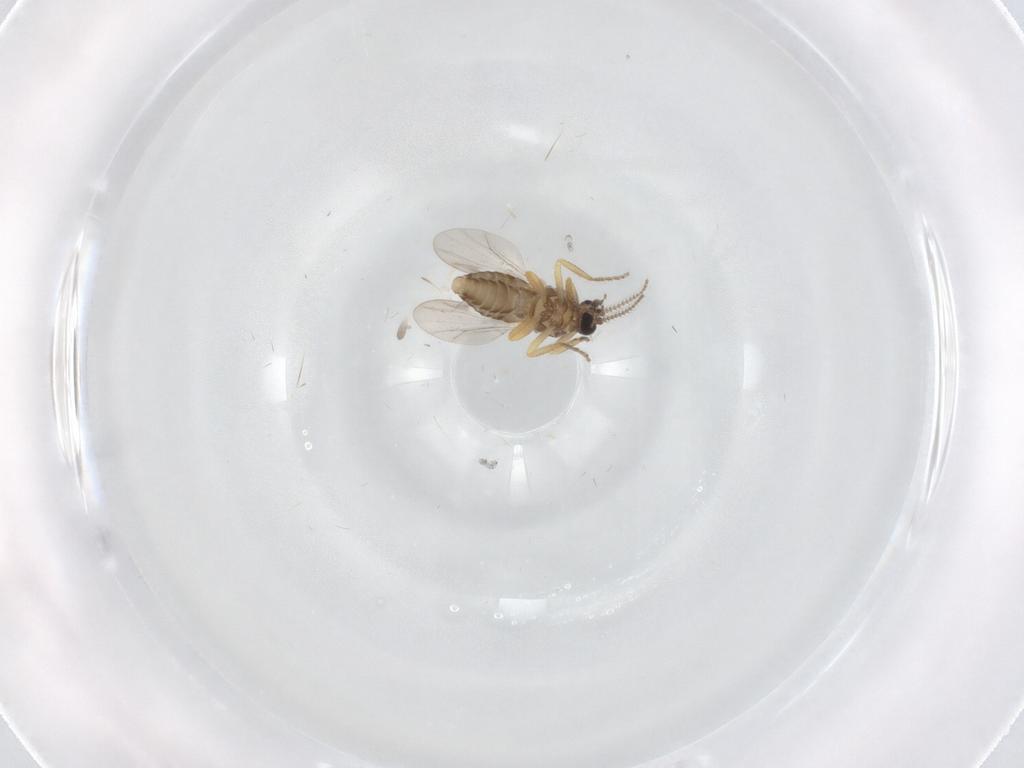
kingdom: Animalia
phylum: Arthropoda
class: Insecta
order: Diptera
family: Ceratopogonidae
